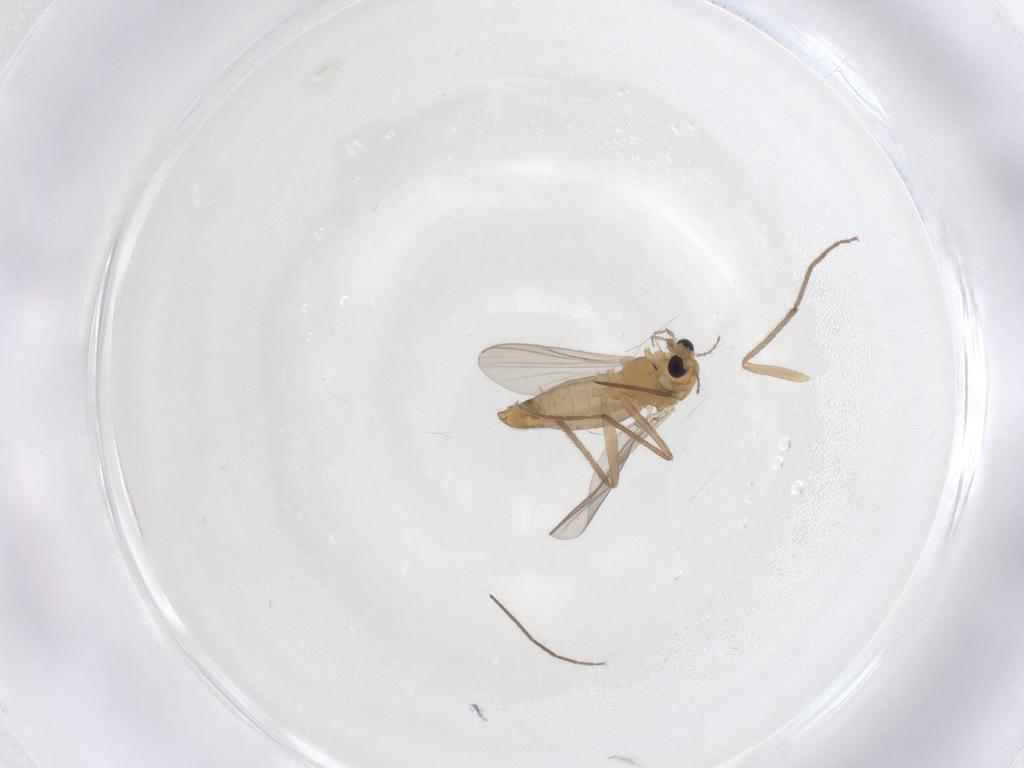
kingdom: Animalia
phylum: Arthropoda
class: Insecta
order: Diptera
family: Chironomidae
